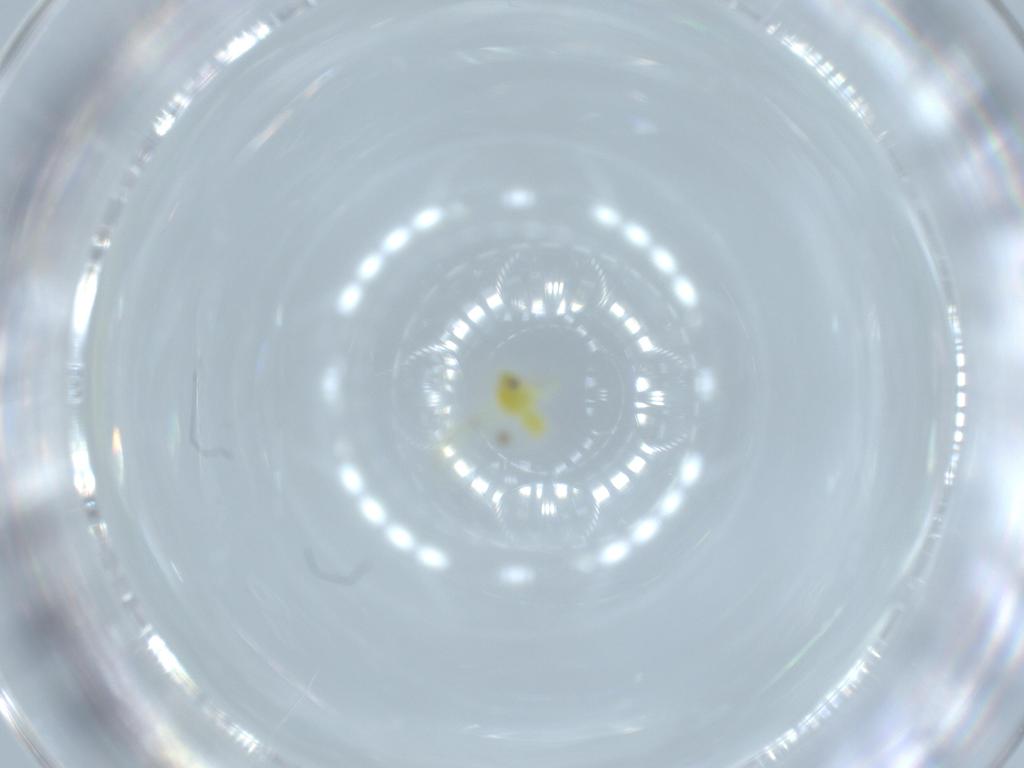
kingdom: Animalia
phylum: Arthropoda
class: Insecta
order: Hemiptera
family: Aleyrodidae
